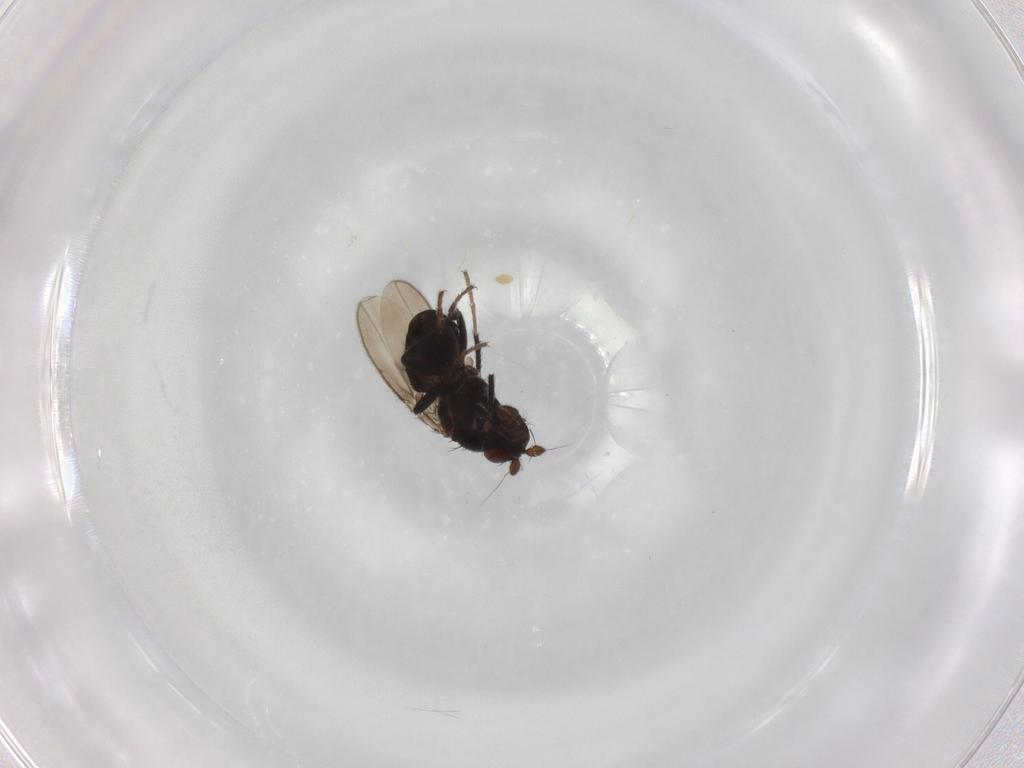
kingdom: Animalia
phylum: Arthropoda
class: Insecta
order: Diptera
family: Sphaeroceridae
